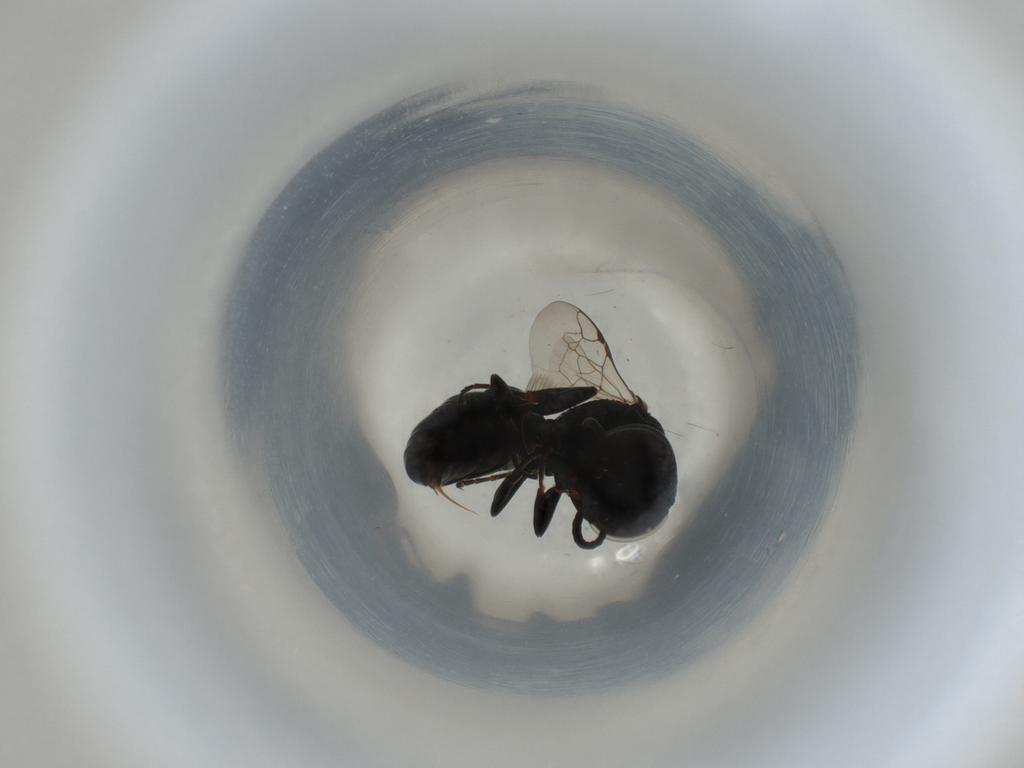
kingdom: Animalia
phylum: Arthropoda
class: Insecta
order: Hymenoptera
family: Crabronidae
